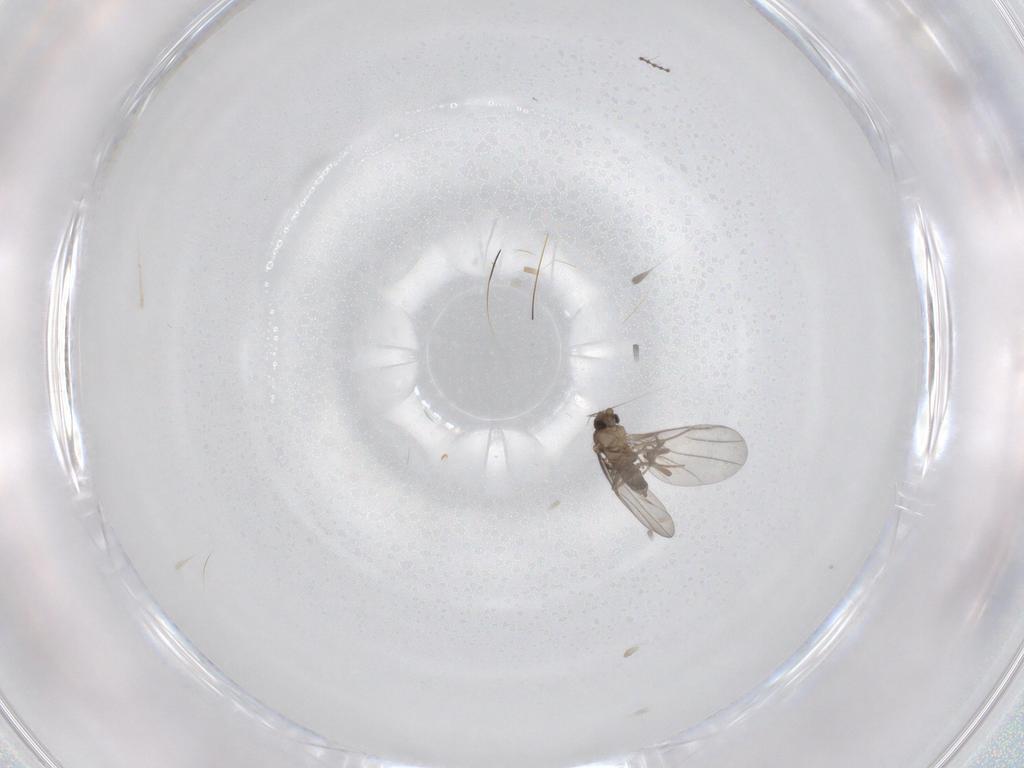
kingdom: Animalia
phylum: Arthropoda
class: Insecta
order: Diptera
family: Phoridae
